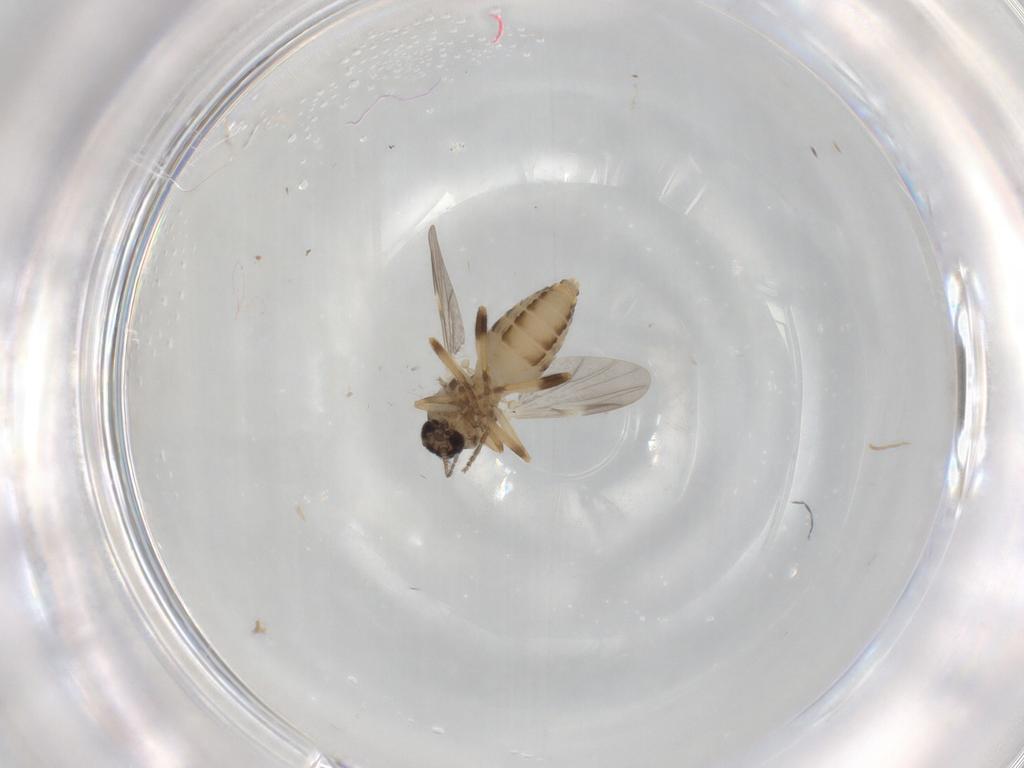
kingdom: Animalia
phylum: Arthropoda
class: Insecta
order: Diptera
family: Ceratopogonidae
